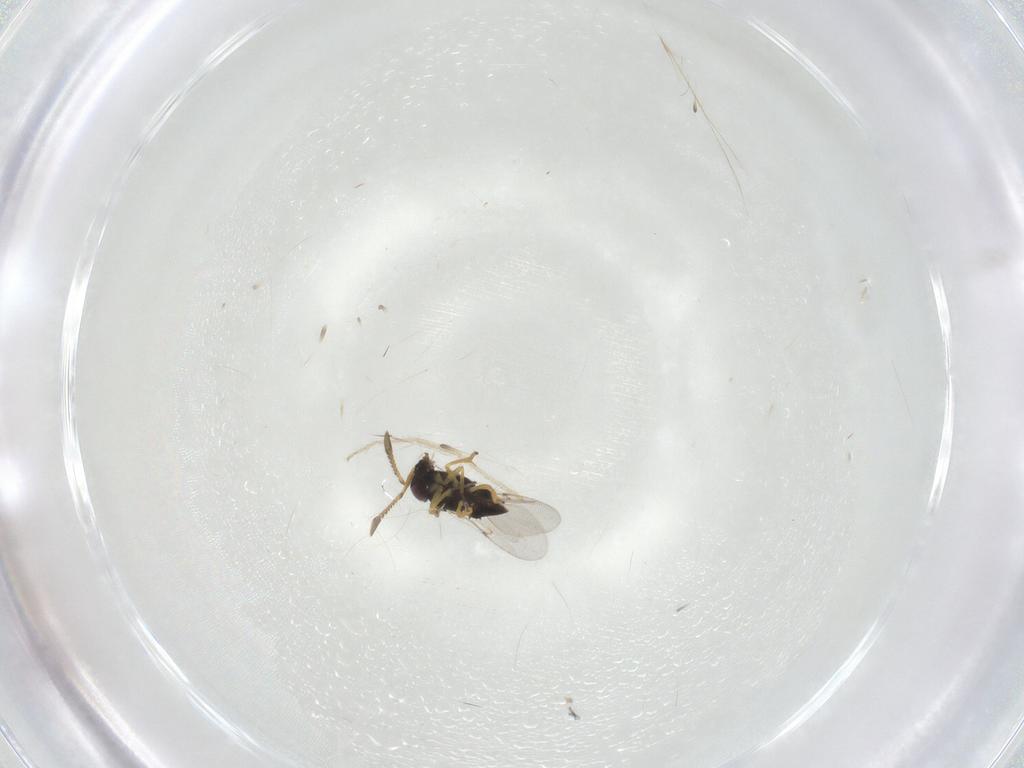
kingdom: Animalia
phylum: Arthropoda
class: Insecta
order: Hymenoptera
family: Encyrtidae
